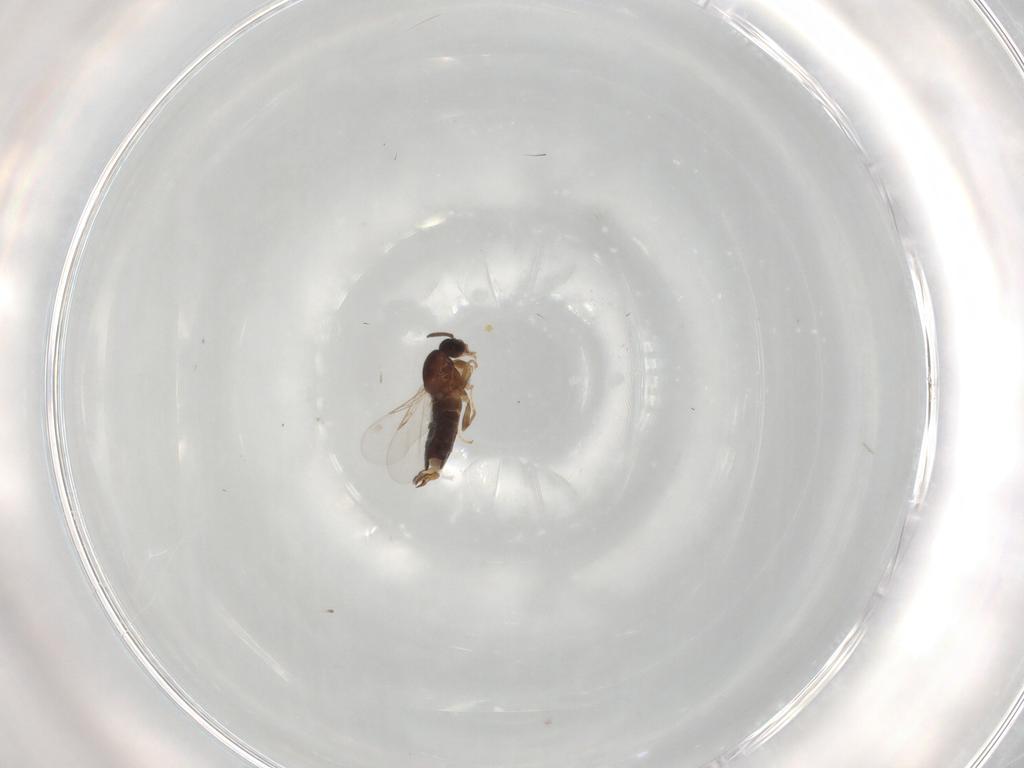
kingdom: Animalia
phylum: Arthropoda
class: Insecta
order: Diptera
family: Scatopsidae
